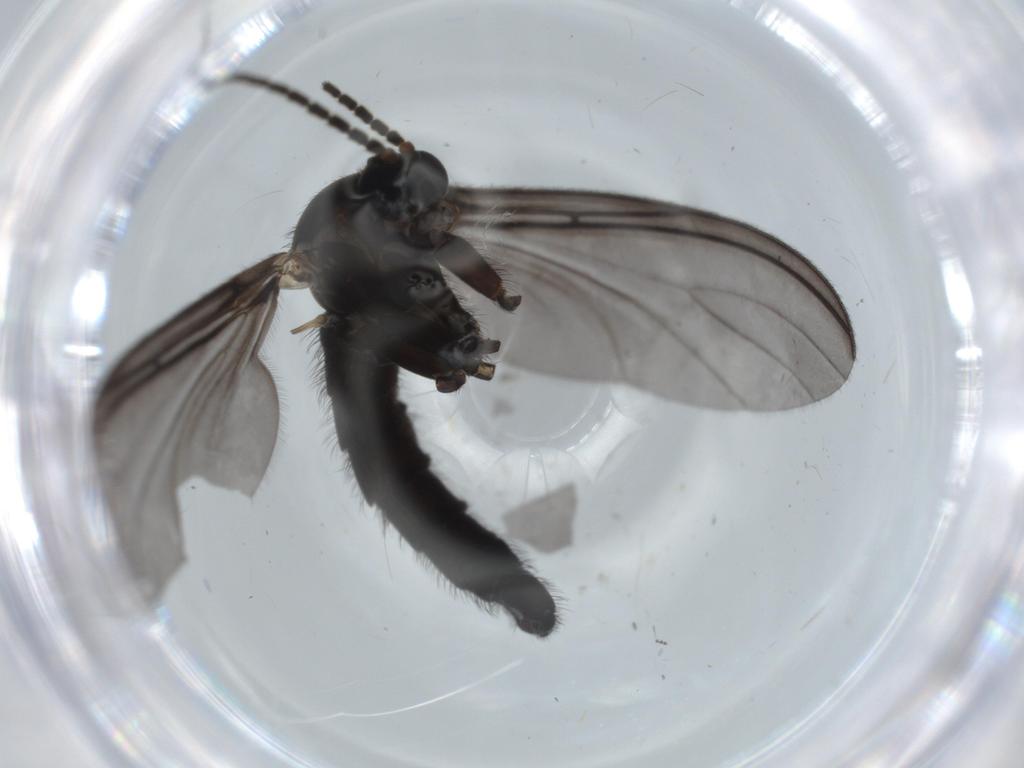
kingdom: Animalia
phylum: Arthropoda
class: Insecta
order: Diptera
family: Sciaridae
